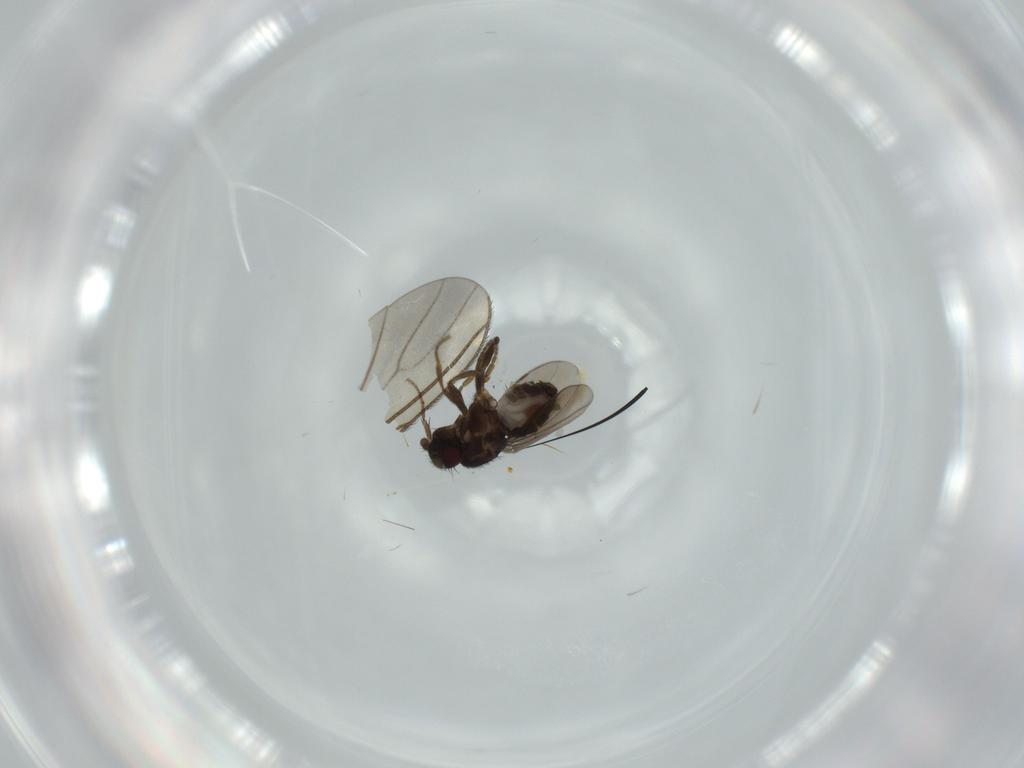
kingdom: Animalia
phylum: Arthropoda
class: Insecta
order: Diptera
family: Sphaeroceridae
